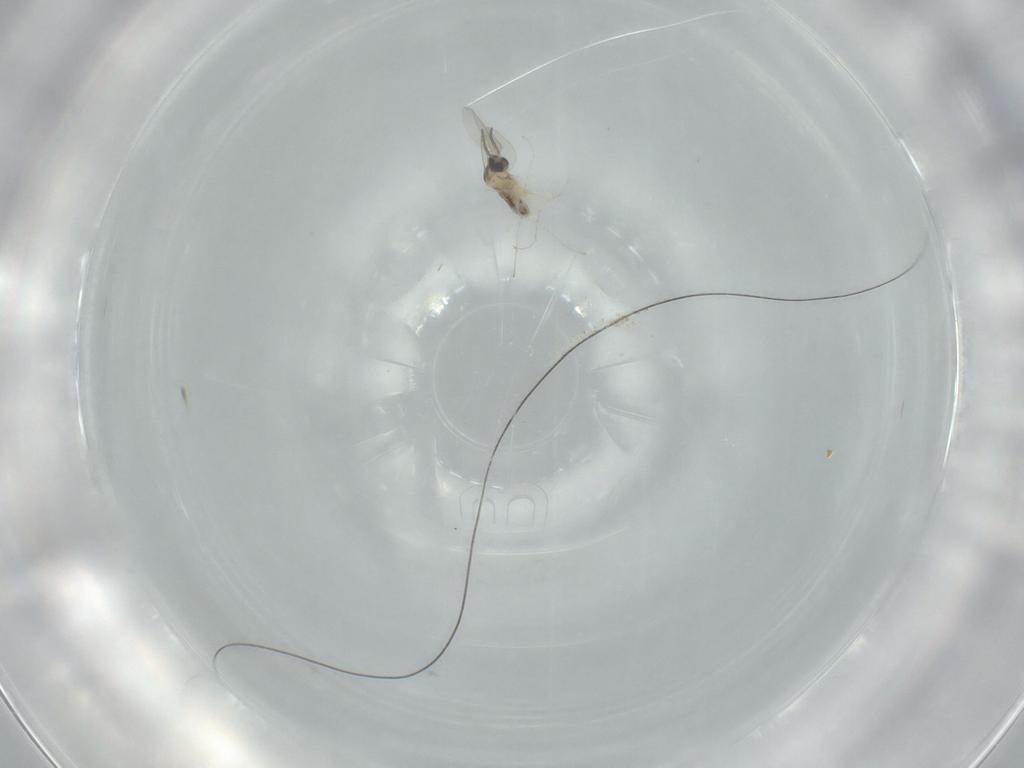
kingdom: Animalia
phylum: Arthropoda
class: Insecta
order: Diptera
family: Cecidomyiidae
